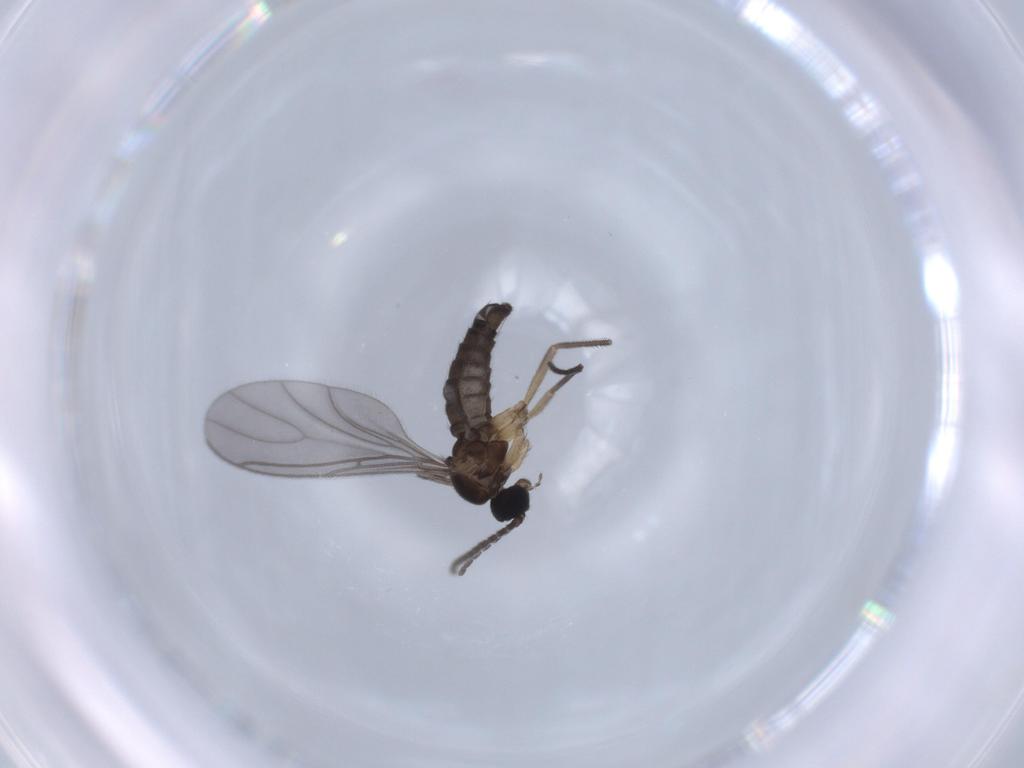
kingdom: Animalia
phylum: Arthropoda
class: Insecta
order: Diptera
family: Sciaridae
